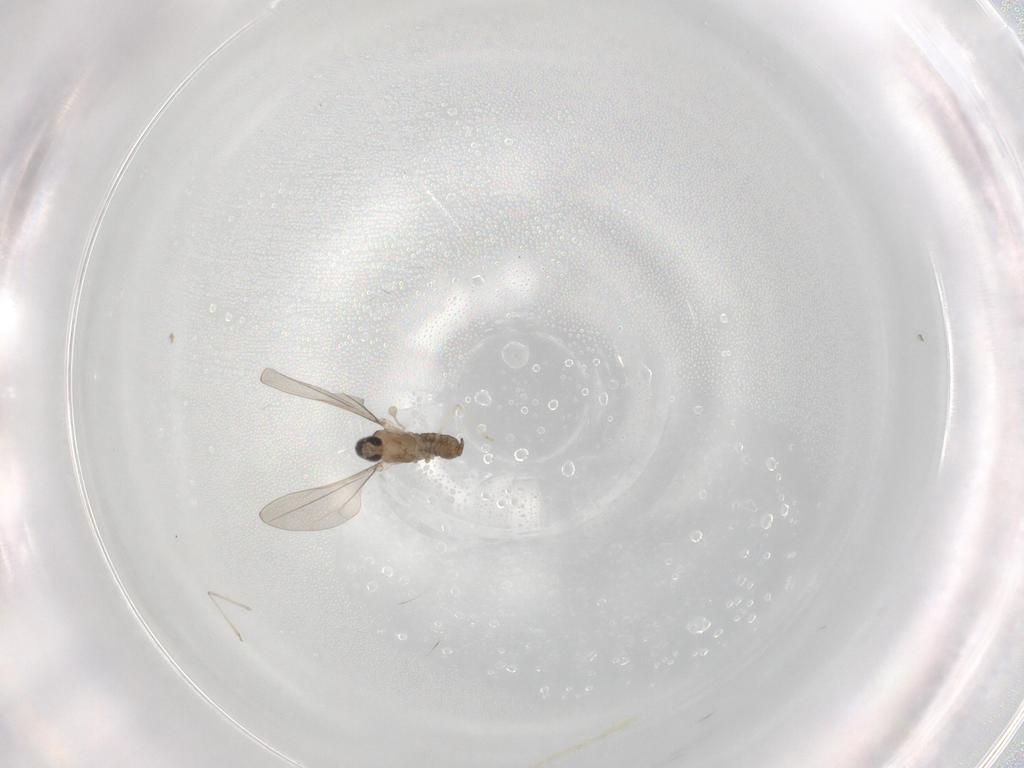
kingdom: Animalia
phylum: Arthropoda
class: Insecta
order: Diptera
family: Cecidomyiidae
